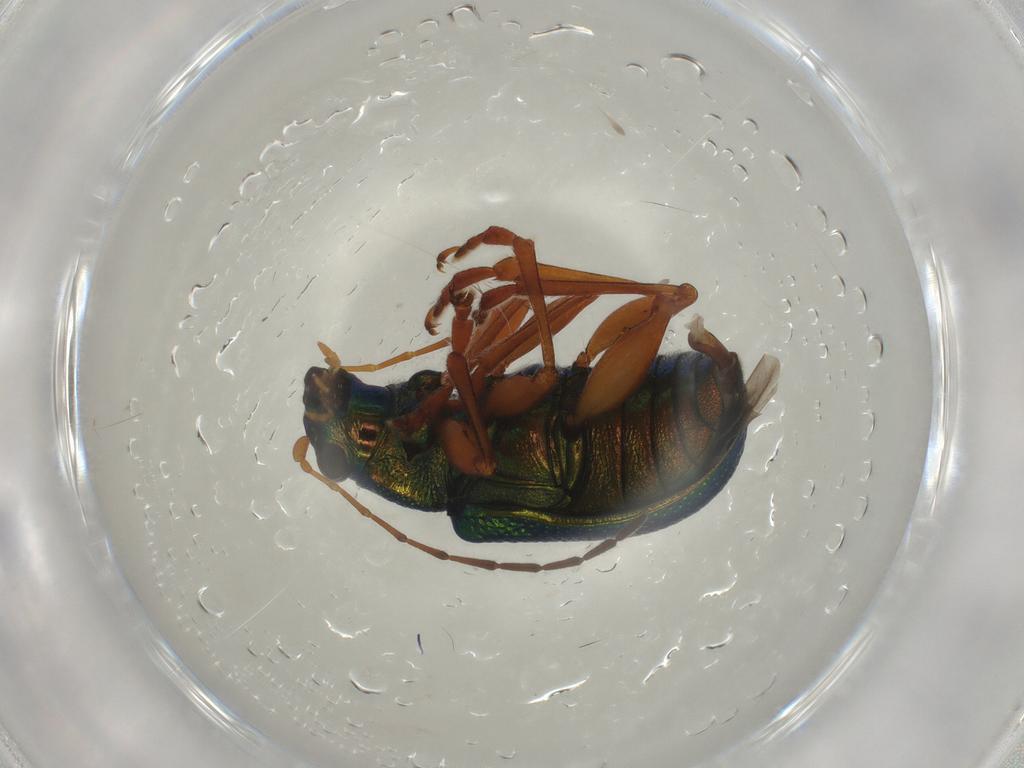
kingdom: Animalia
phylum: Arthropoda
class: Insecta
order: Coleoptera
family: Chrysomelidae
